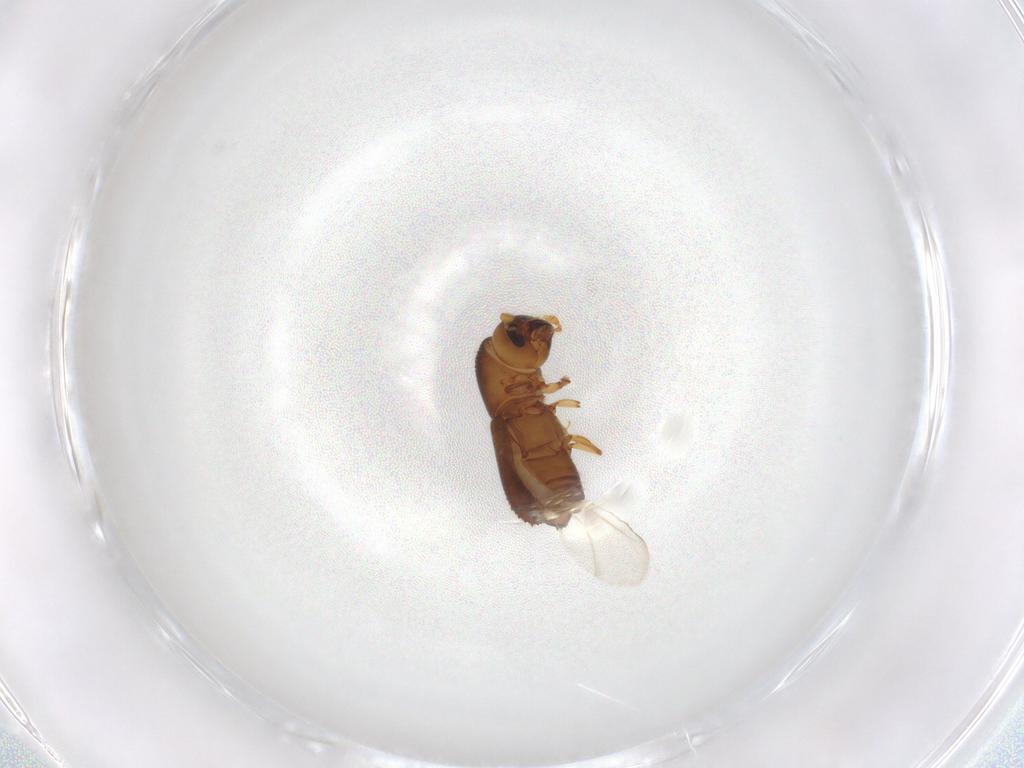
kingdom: Animalia
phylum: Arthropoda
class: Insecta
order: Coleoptera
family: Curculionidae
